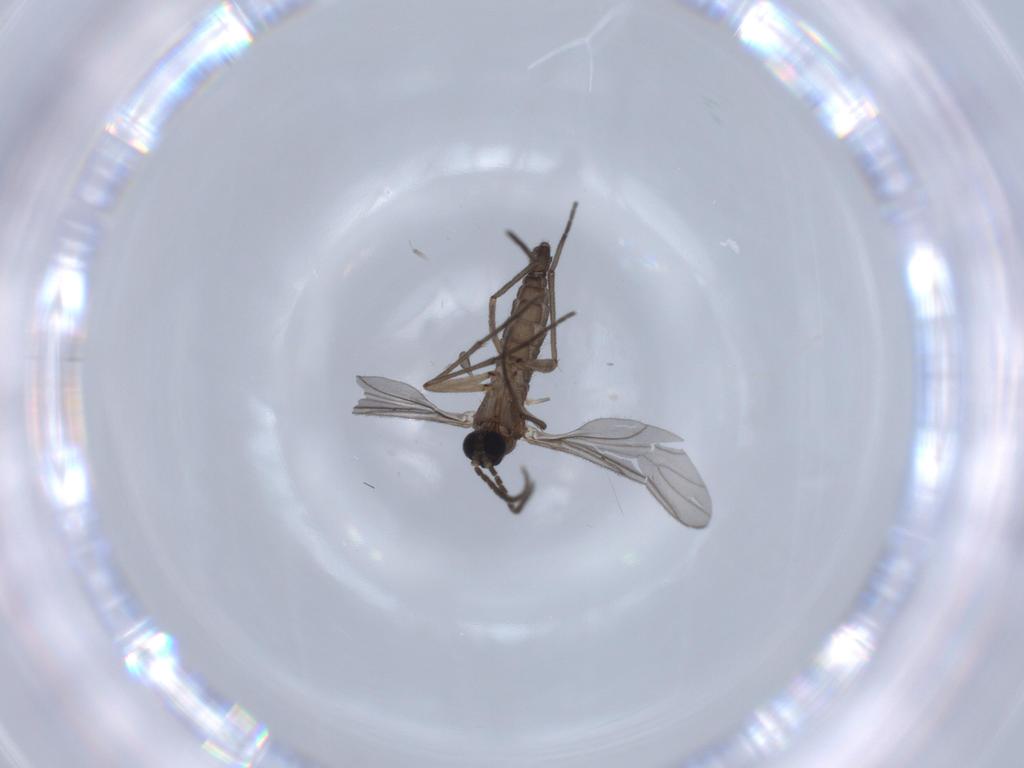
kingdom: Animalia
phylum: Arthropoda
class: Insecta
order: Diptera
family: Sciaridae
